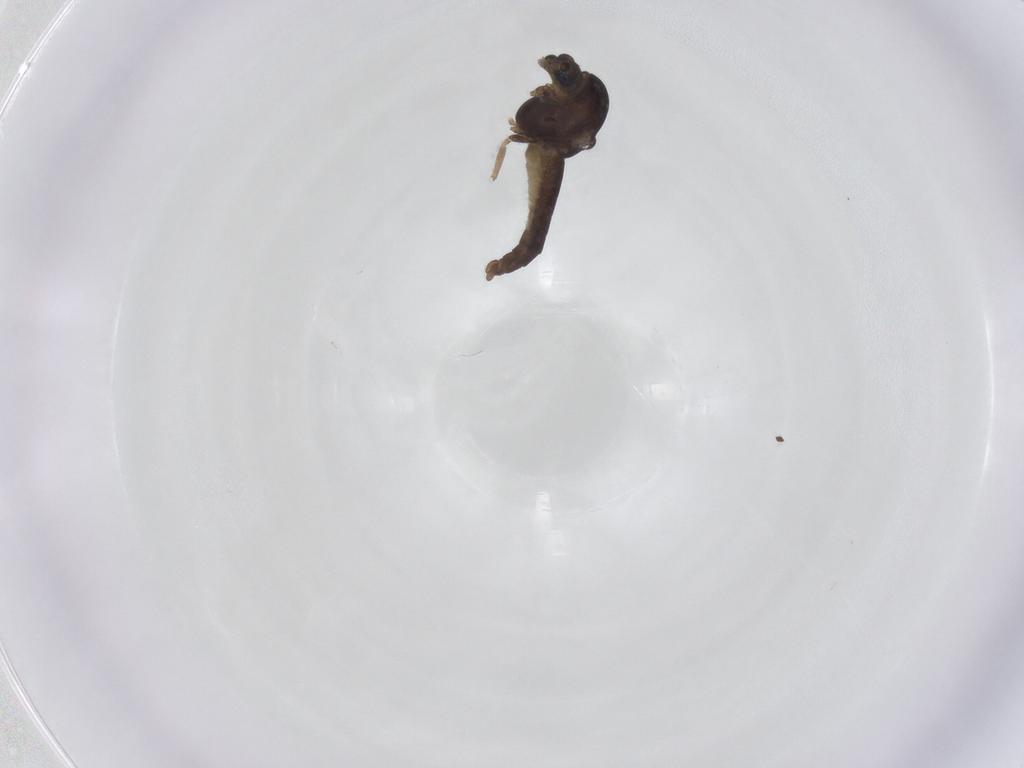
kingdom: Animalia
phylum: Arthropoda
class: Insecta
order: Diptera
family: Chironomidae
